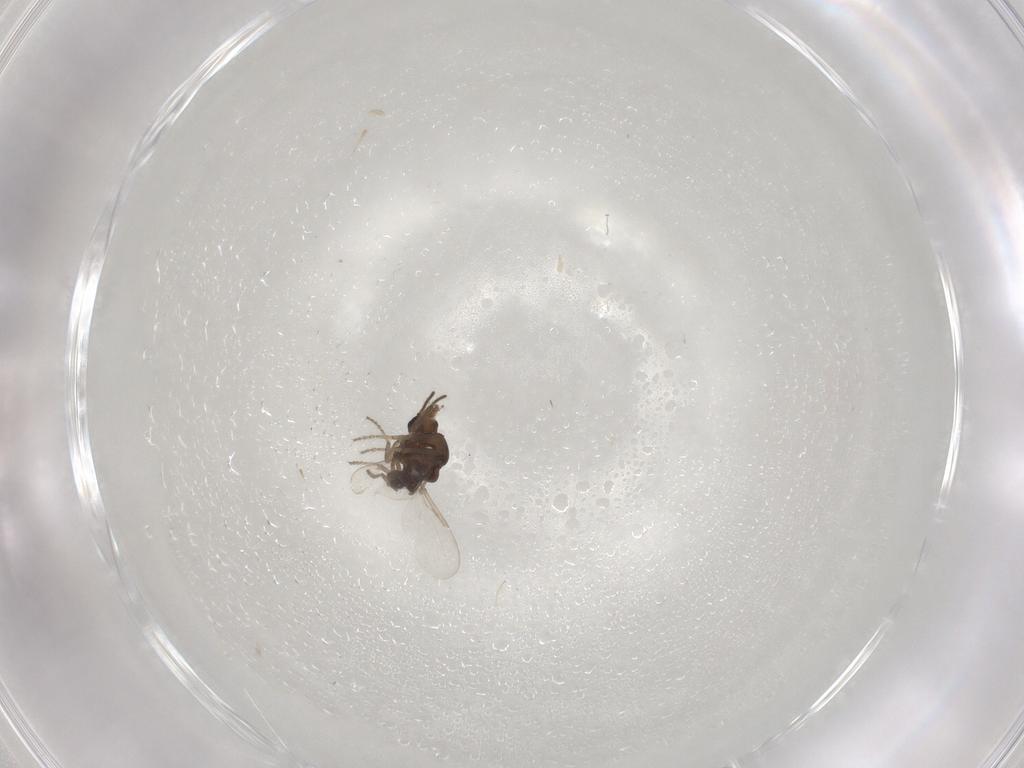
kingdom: Animalia
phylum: Arthropoda
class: Insecta
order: Diptera
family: Ceratopogonidae
